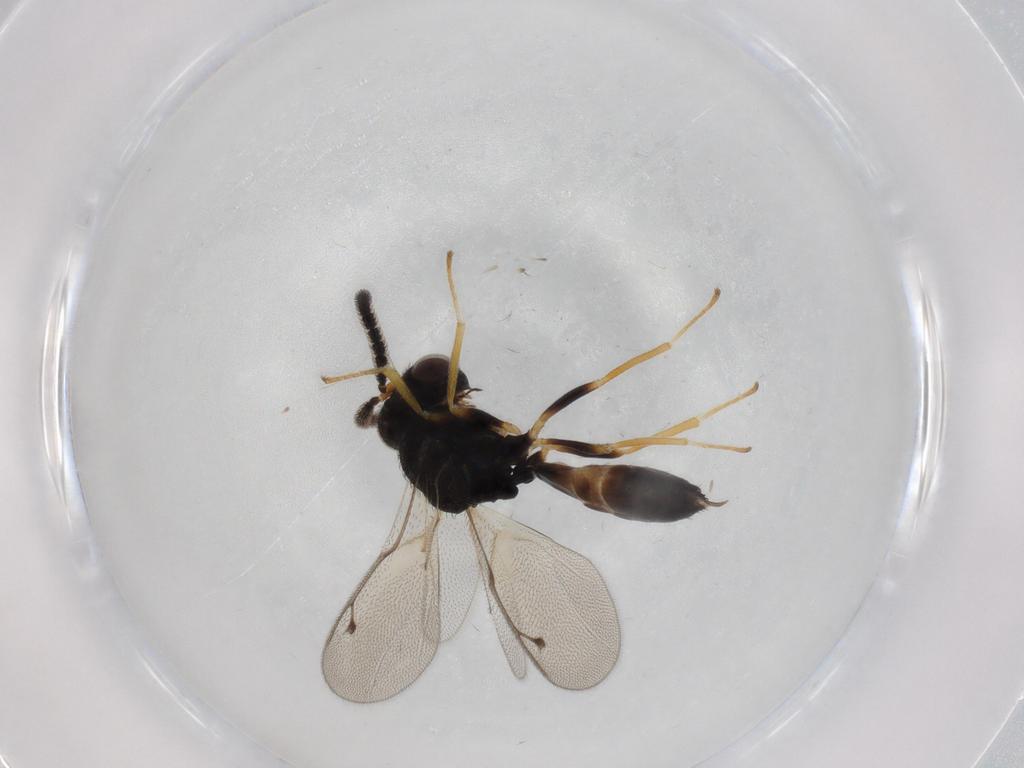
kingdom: Animalia
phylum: Arthropoda
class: Insecta
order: Hymenoptera
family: Pteromalidae
